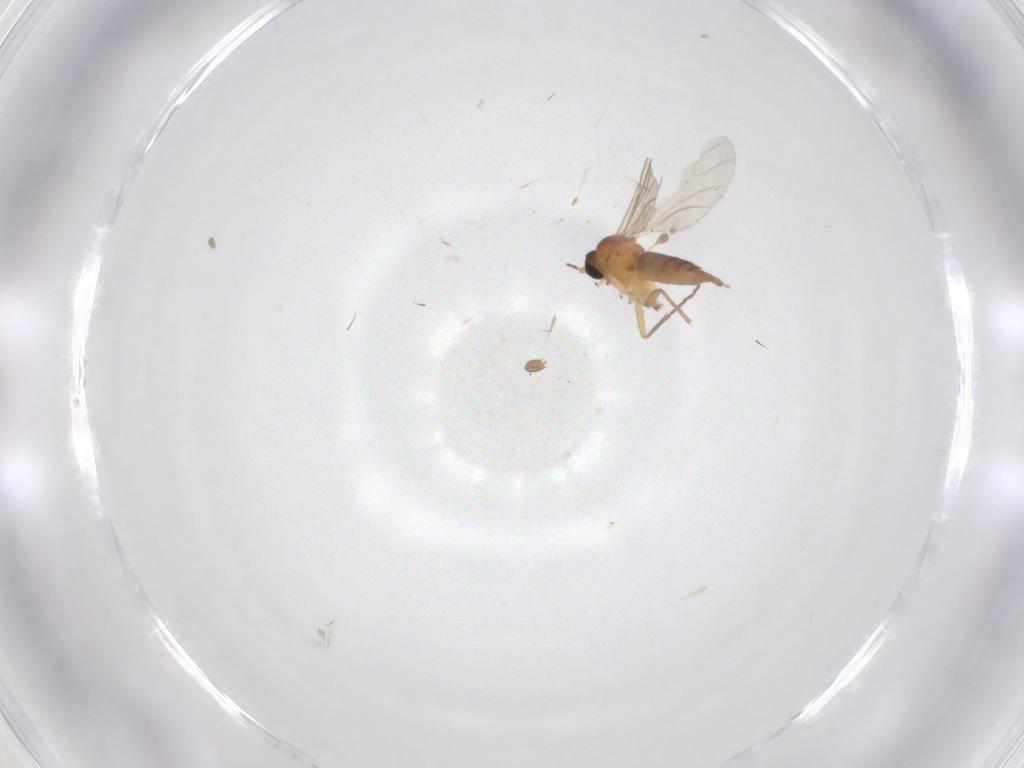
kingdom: Animalia
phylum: Arthropoda
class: Insecta
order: Diptera
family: Sciaridae
